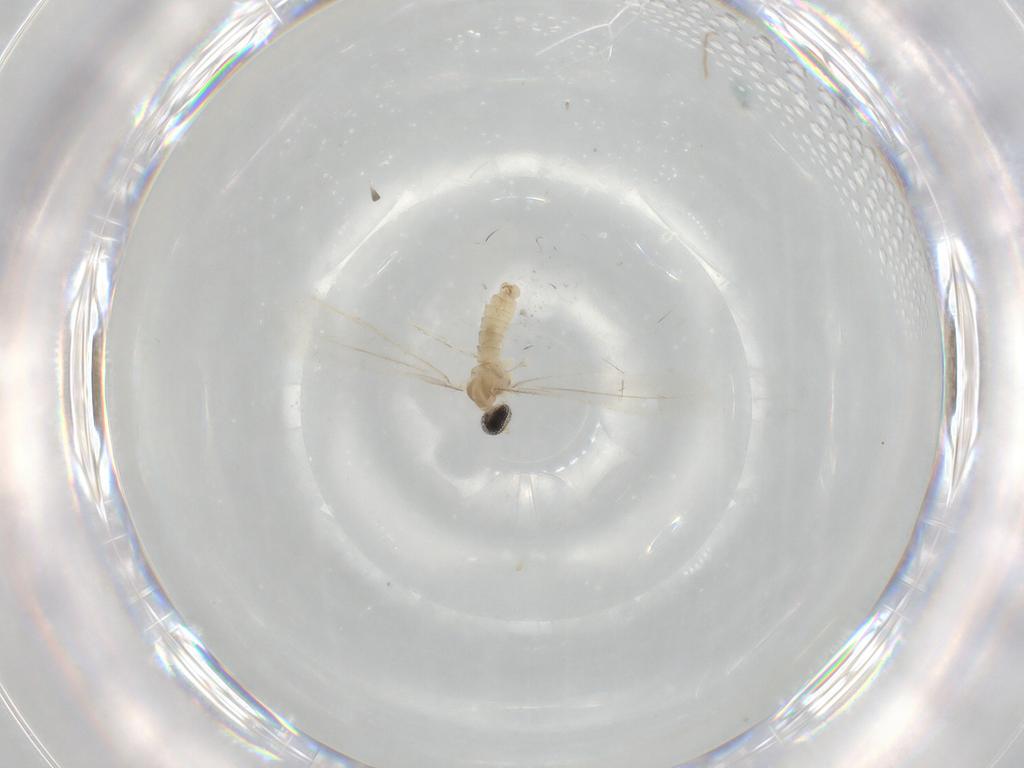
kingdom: Animalia
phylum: Arthropoda
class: Insecta
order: Diptera
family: Cecidomyiidae
